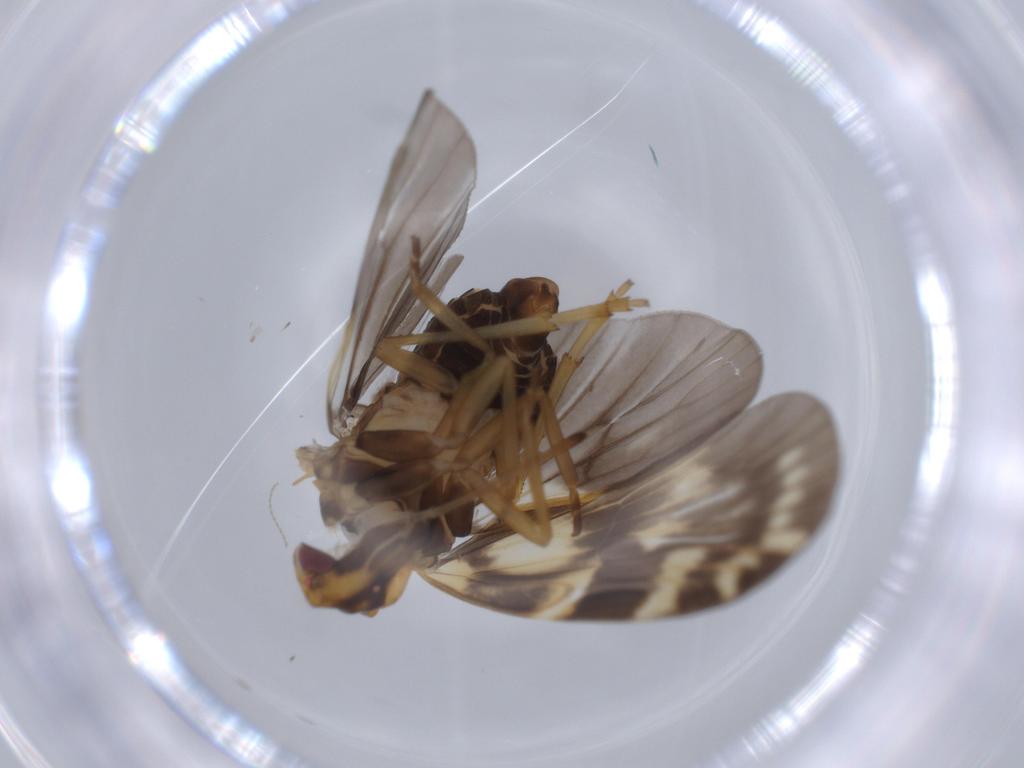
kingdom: Animalia
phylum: Arthropoda
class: Insecta
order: Hemiptera
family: Cixiidae
